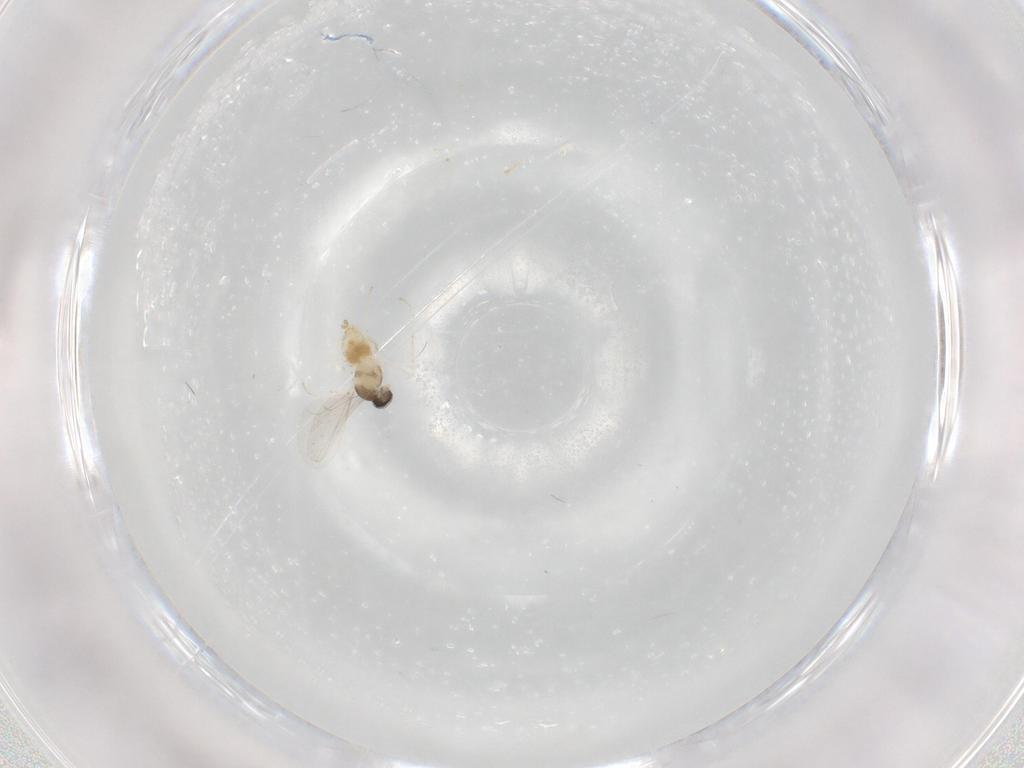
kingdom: Animalia
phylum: Arthropoda
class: Insecta
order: Diptera
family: Cecidomyiidae
